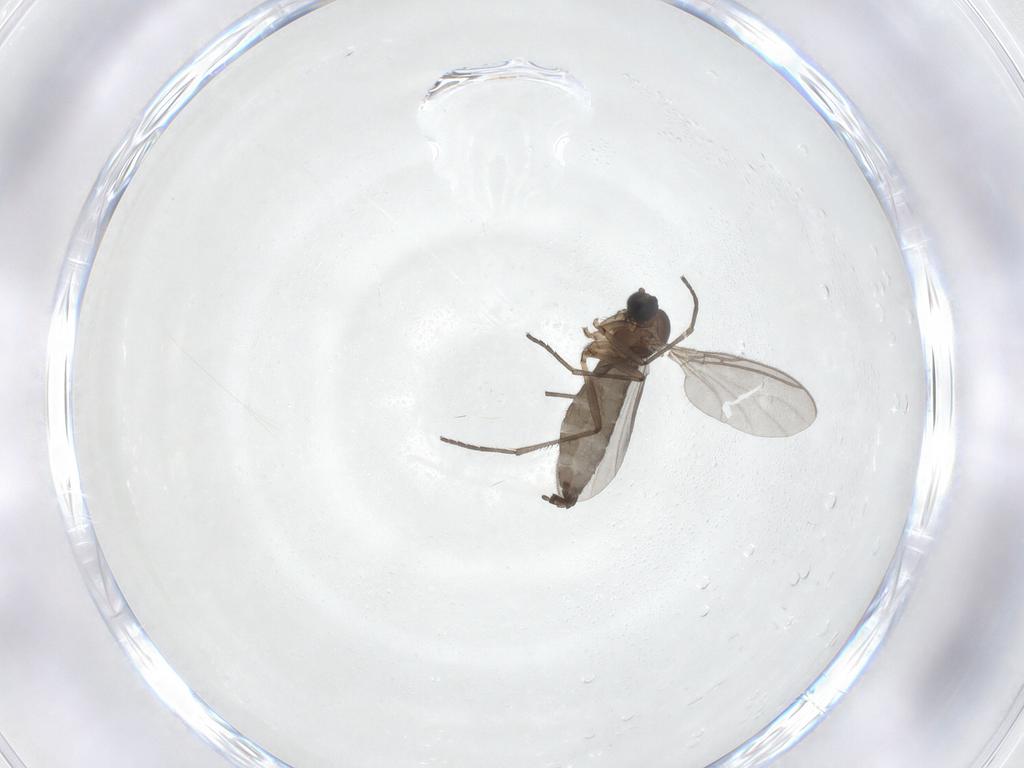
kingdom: Animalia
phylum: Arthropoda
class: Insecta
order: Diptera
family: Sciaridae
